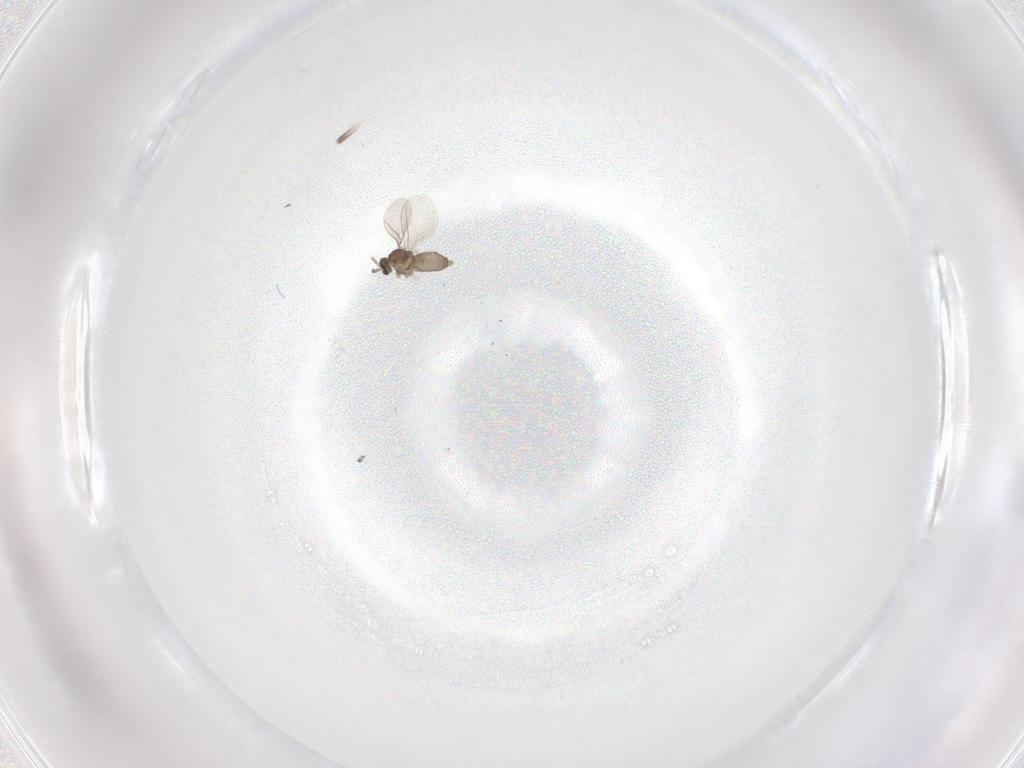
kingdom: Animalia
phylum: Arthropoda
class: Insecta
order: Diptera
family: Cecidomyiidae
